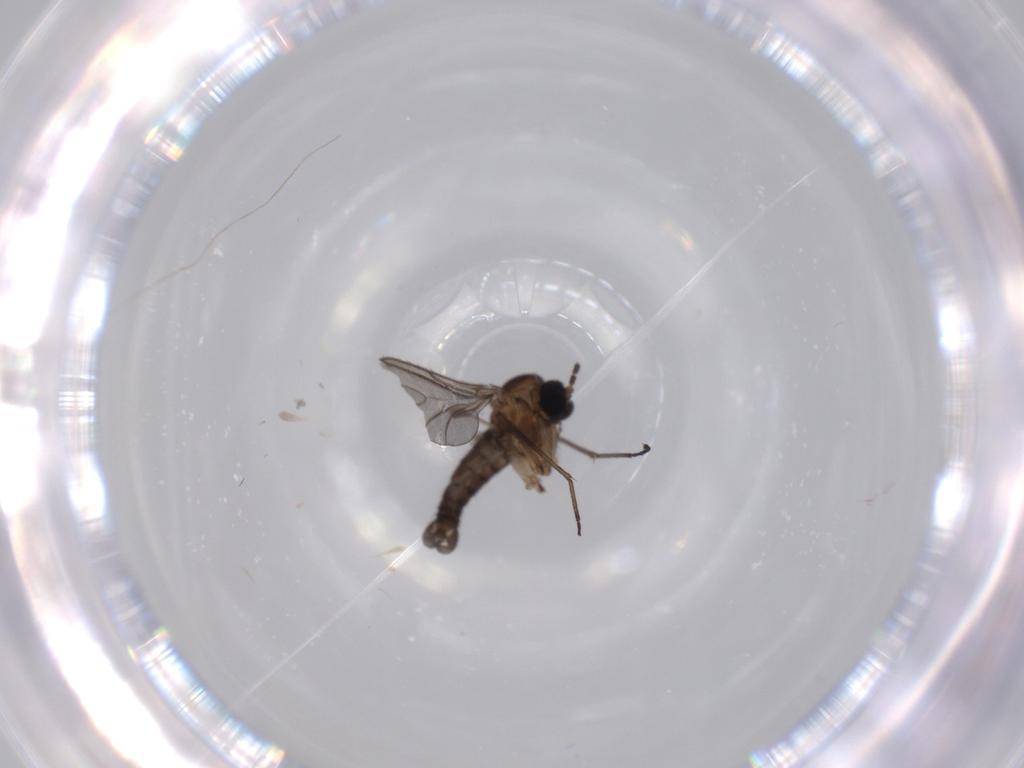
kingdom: Animalia
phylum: Arthropoda
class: Insecta
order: Diptera
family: Sciaridae
